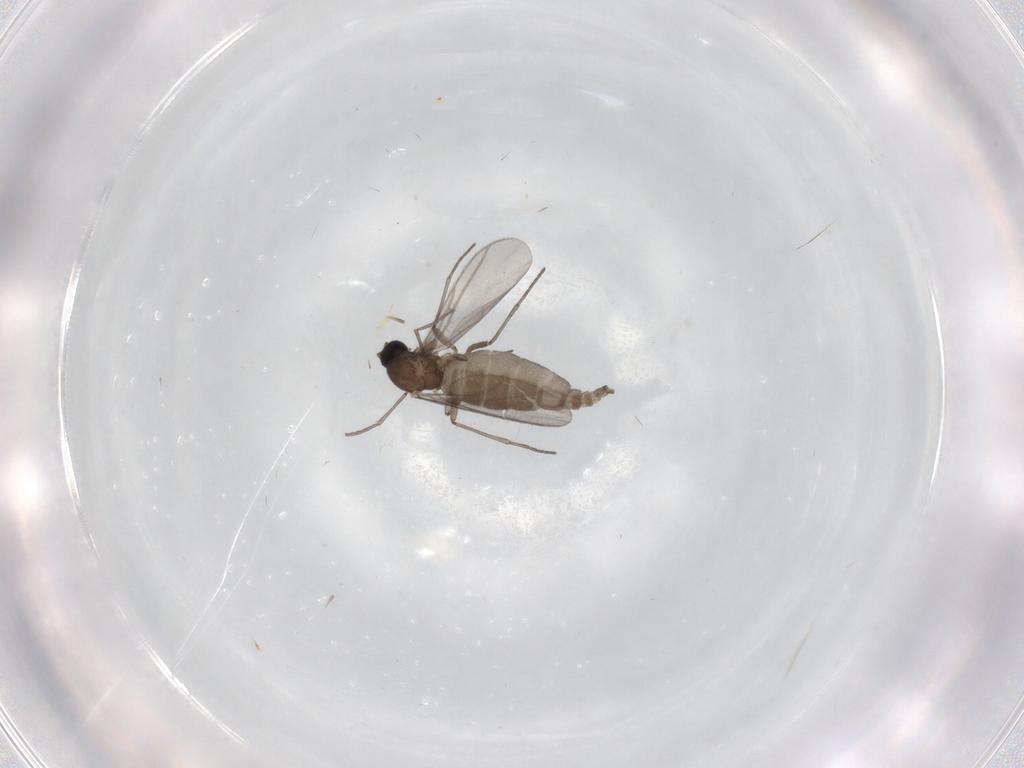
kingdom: Animalia
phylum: Arthropoda
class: Insecta
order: Diptera
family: Sciaridae
